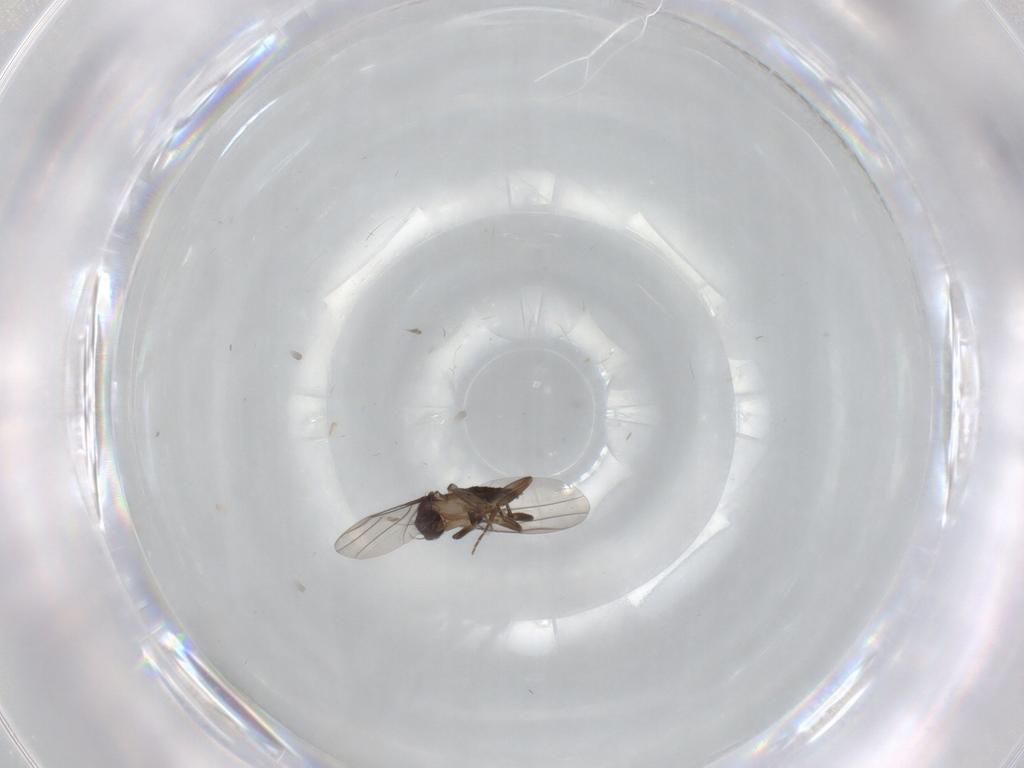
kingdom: Animalia
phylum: Arthropoda
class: Insecta
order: Diptera
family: Phoridae
